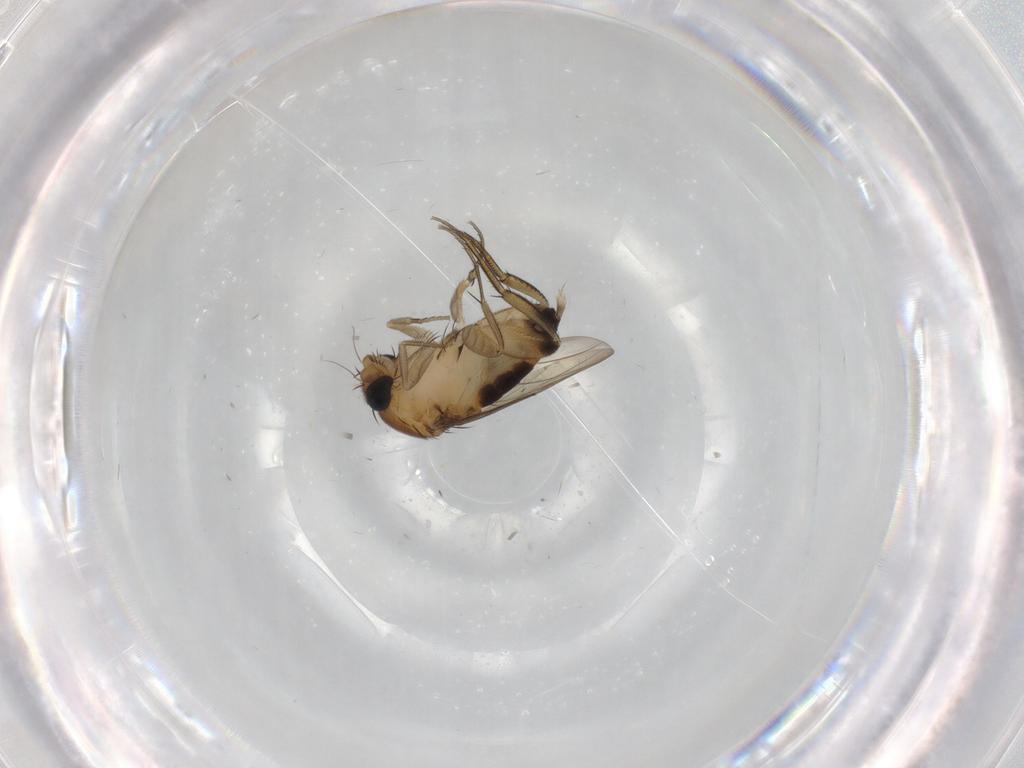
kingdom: Animalia
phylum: Arthropoda
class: Insecta
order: Diptera
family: Phoridae
